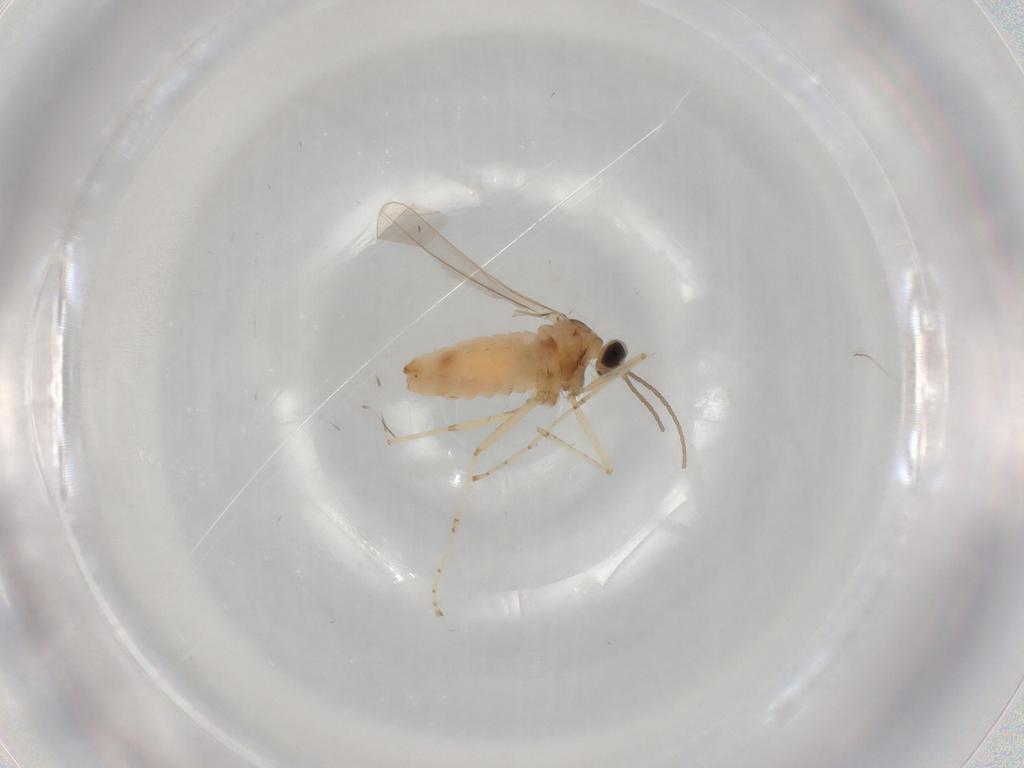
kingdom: Animalia
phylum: Arthropoda
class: Insecta
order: Diptera
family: Cecidomyiidae
